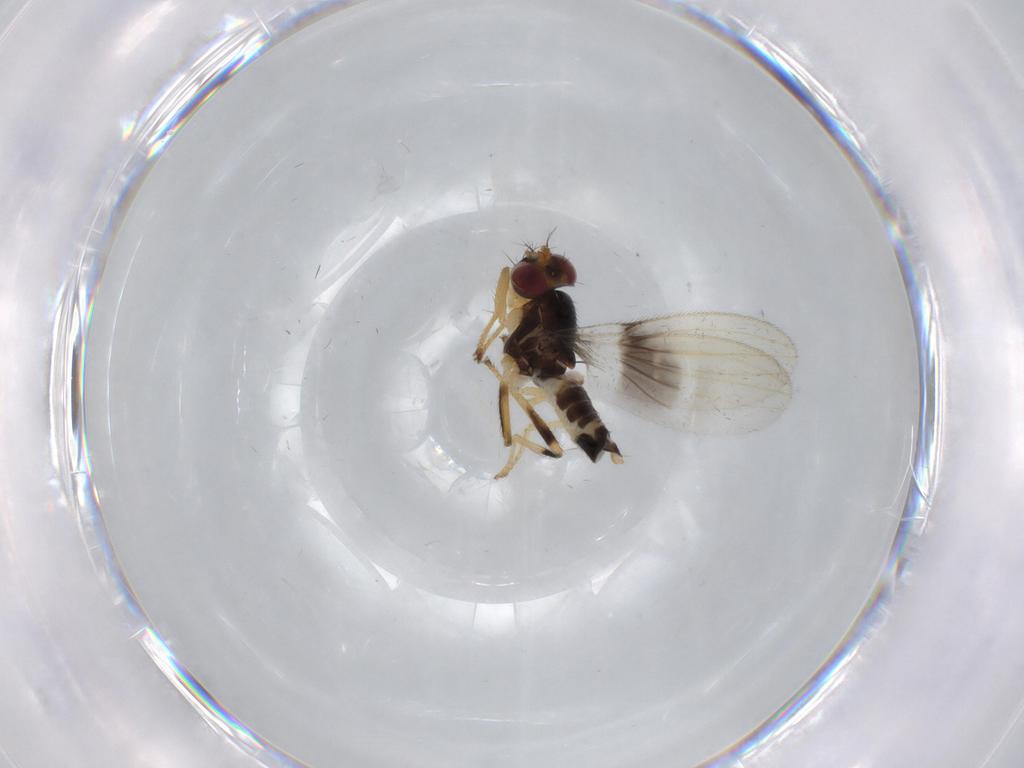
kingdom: Animalia
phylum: Arthropoda
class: Insecta
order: Diptera
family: Periscelididae
